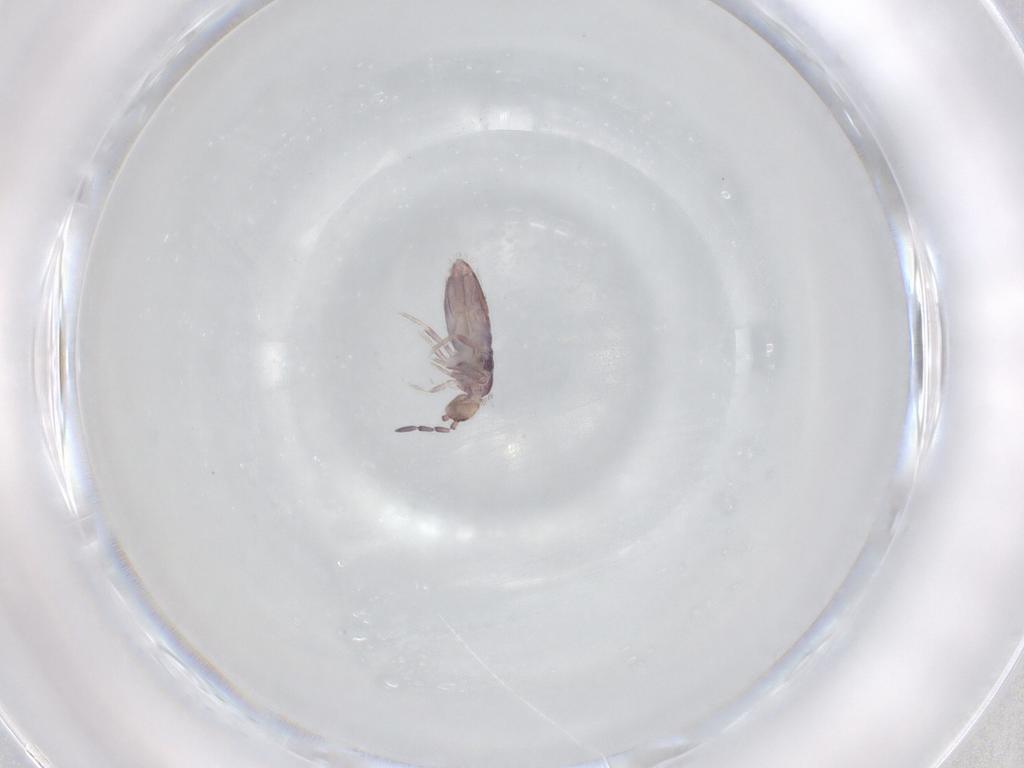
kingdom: Animalia
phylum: Arthropoda
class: Collembola
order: Entomobryomorpha
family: Entomobryidae
